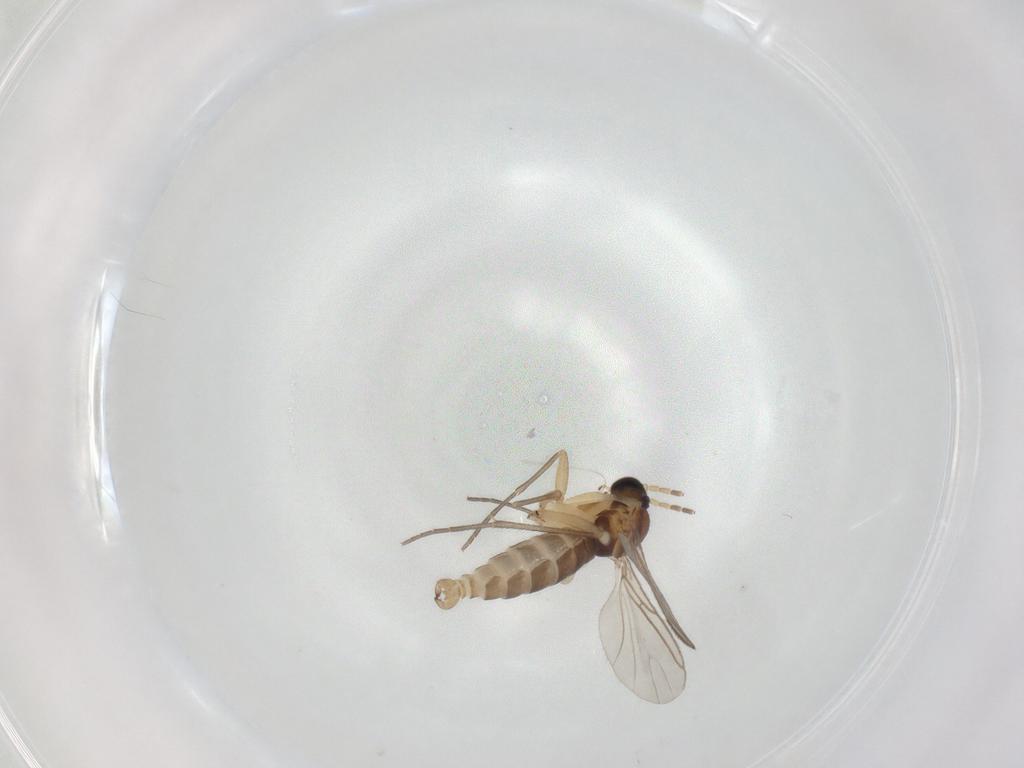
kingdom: Animalia
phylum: Arthropoda
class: Insecta
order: Diptera
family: Sciaridae
